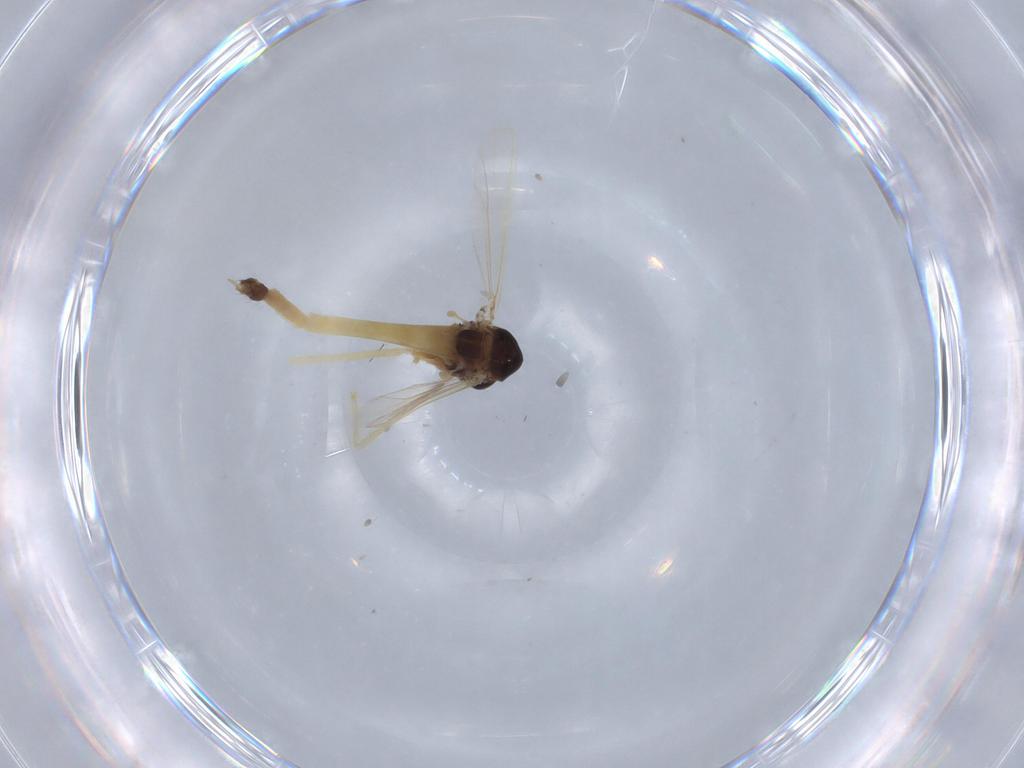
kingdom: Animalia
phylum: Arthropoda
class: Insecta
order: Diptera
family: Chironomidae
